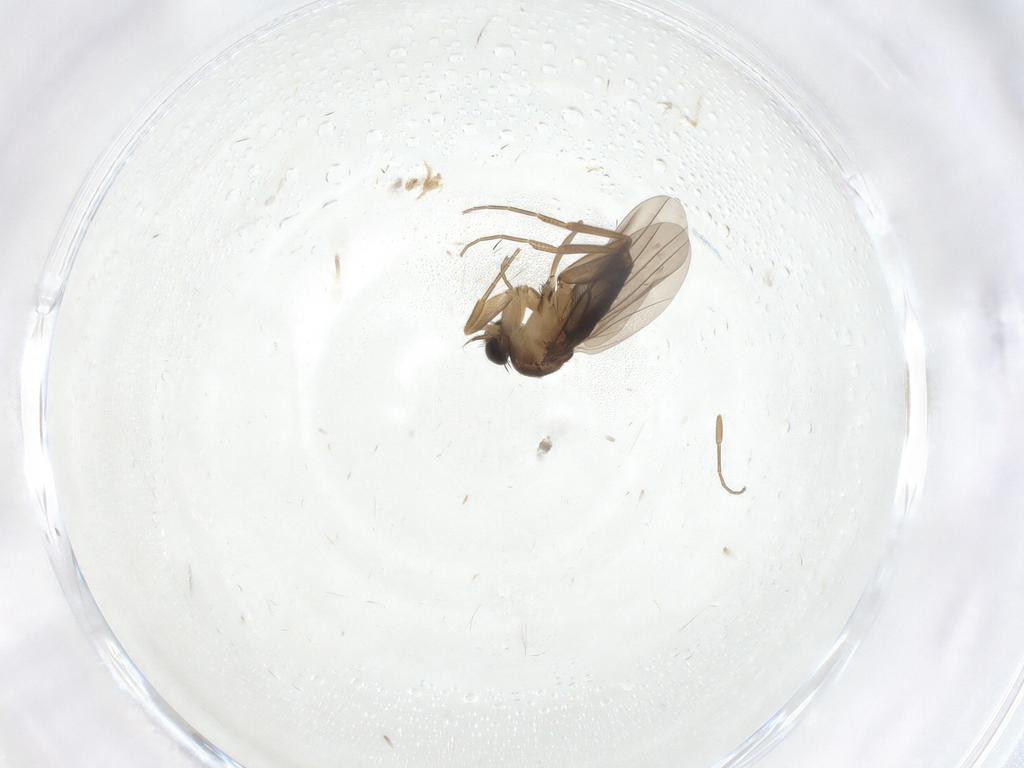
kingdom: Animalia
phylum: Arthropoda
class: Insecta
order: Diptera
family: Phoridae
